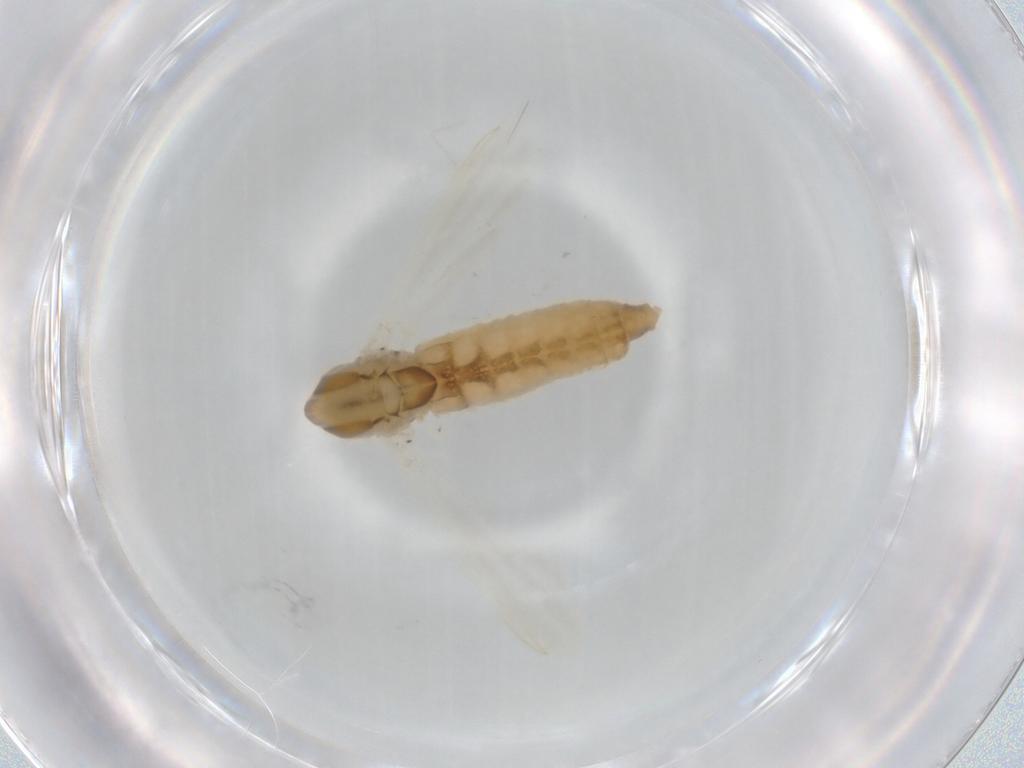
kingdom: Animalia
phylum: Arthropoda
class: Insecta
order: Diptera
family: Chironomidae
